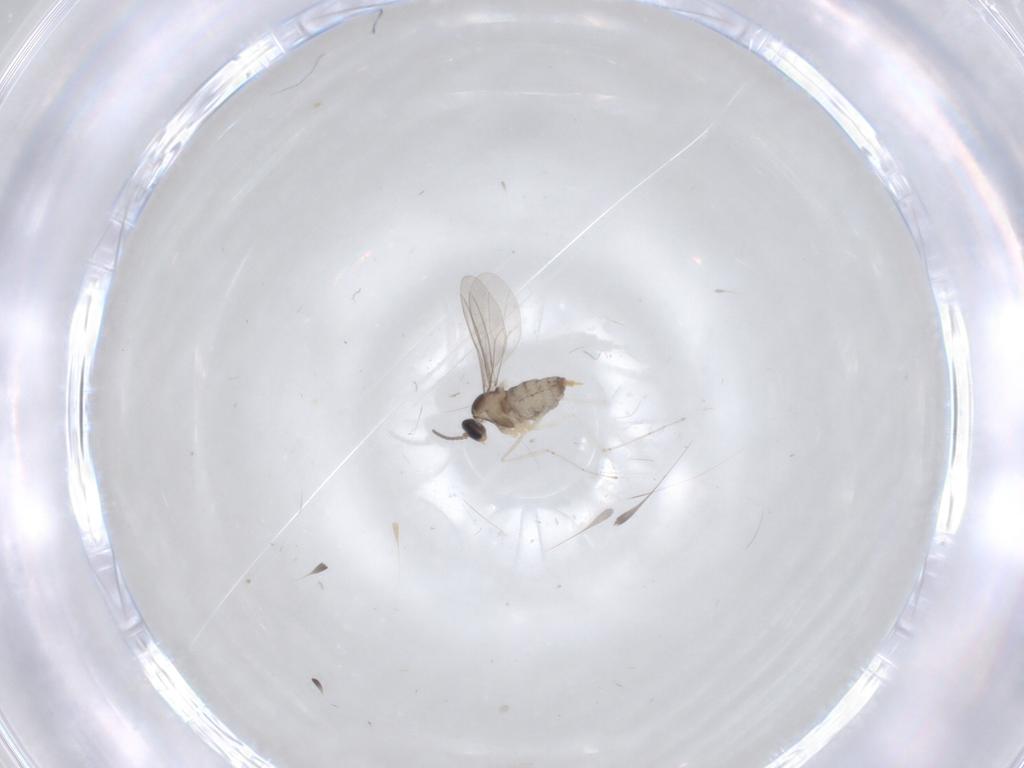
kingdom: Animalia
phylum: Arthropoda
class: Insecta
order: Diptera
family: Cecidomyiidae
